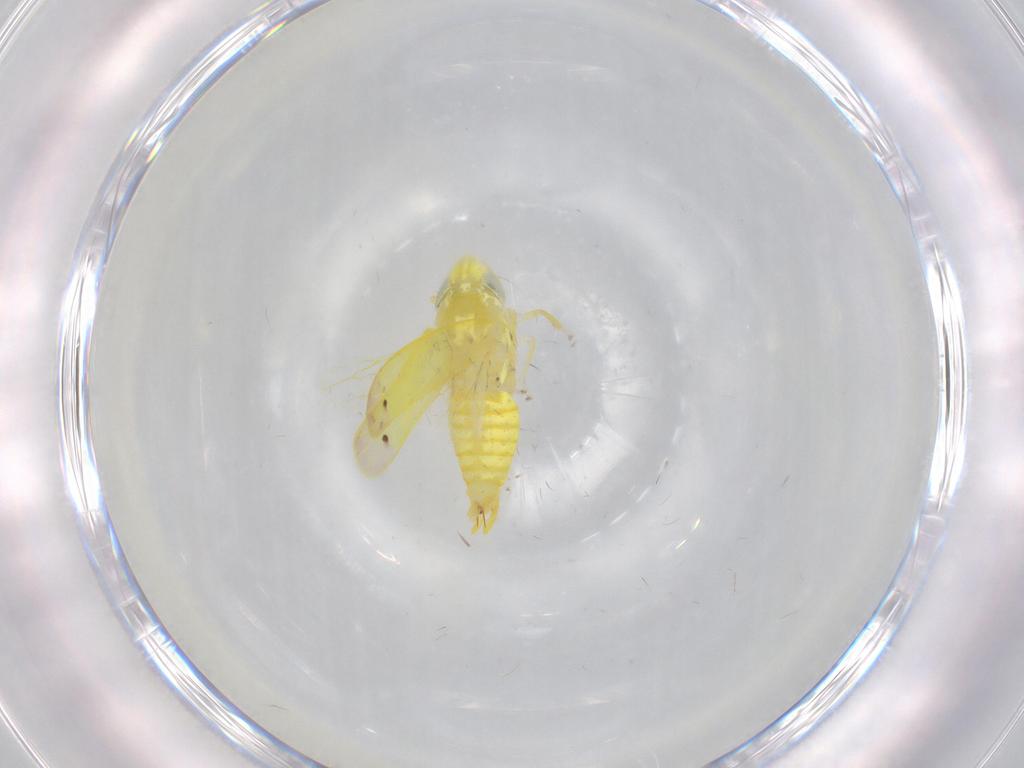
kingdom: Animalia
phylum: Arthropoda
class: Insecta
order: Hemiptera
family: Cicadellidae
